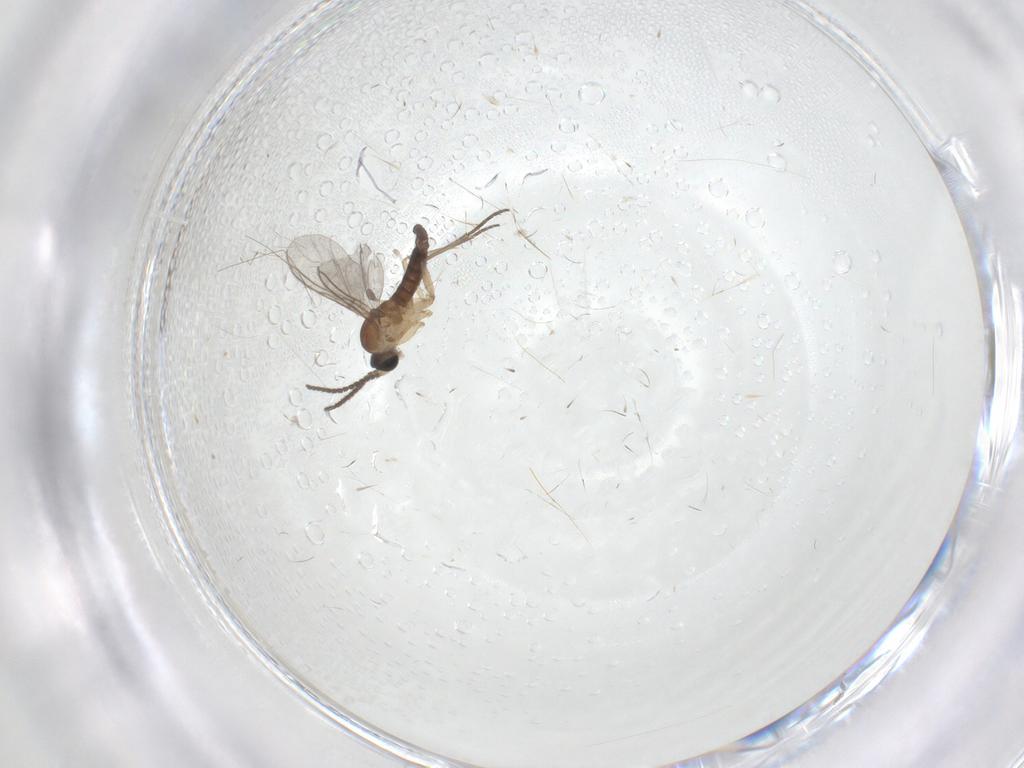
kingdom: Animalia
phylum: Arthropoda
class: Insecta
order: Diptera
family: Sciaridae
